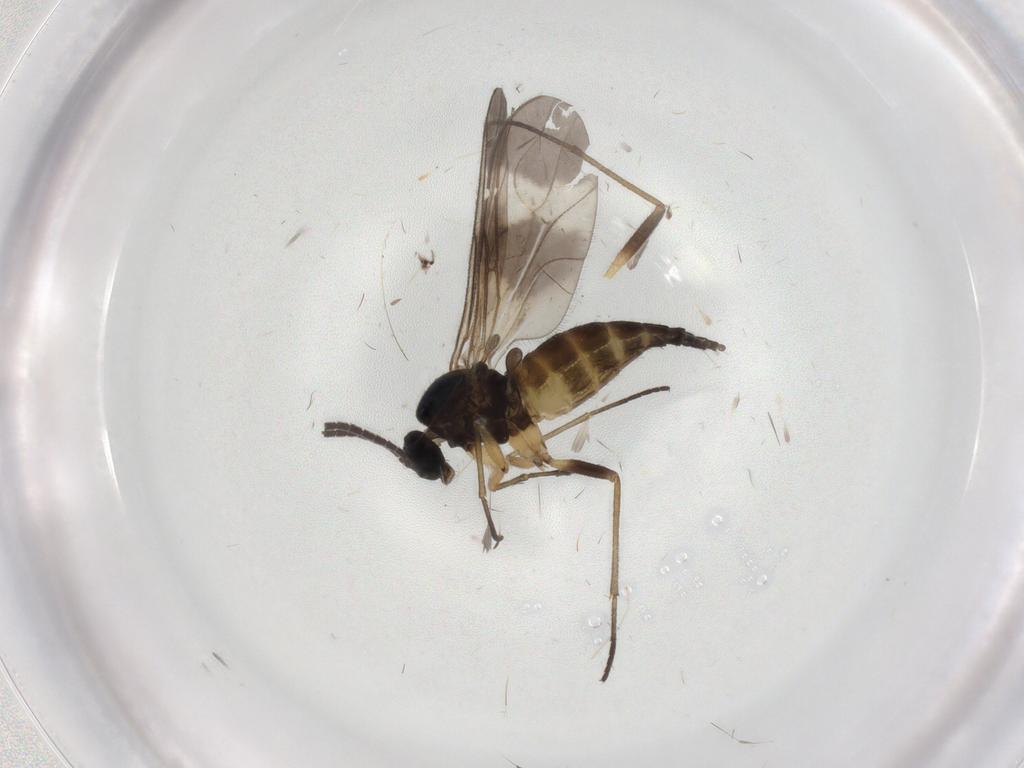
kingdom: Animalia
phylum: Arthropoda
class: Insecta
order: Diptera
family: Sciaridae
